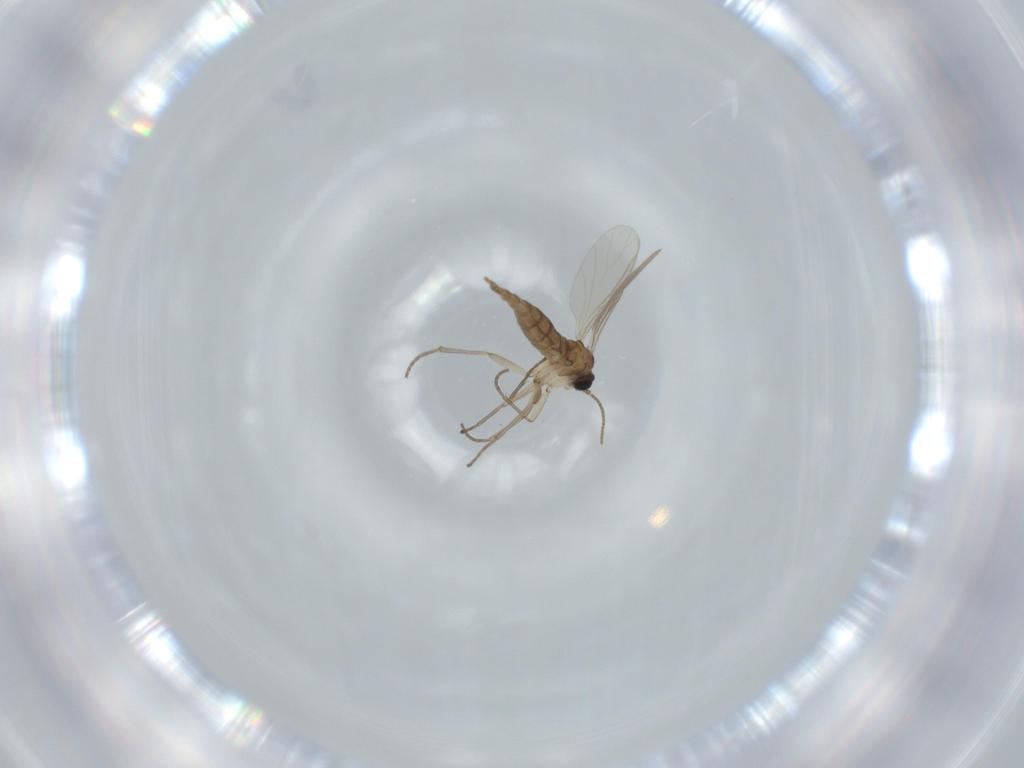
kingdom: Animalia
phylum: Arthropoda
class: Insecta
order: Diptera
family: Sciaridae
